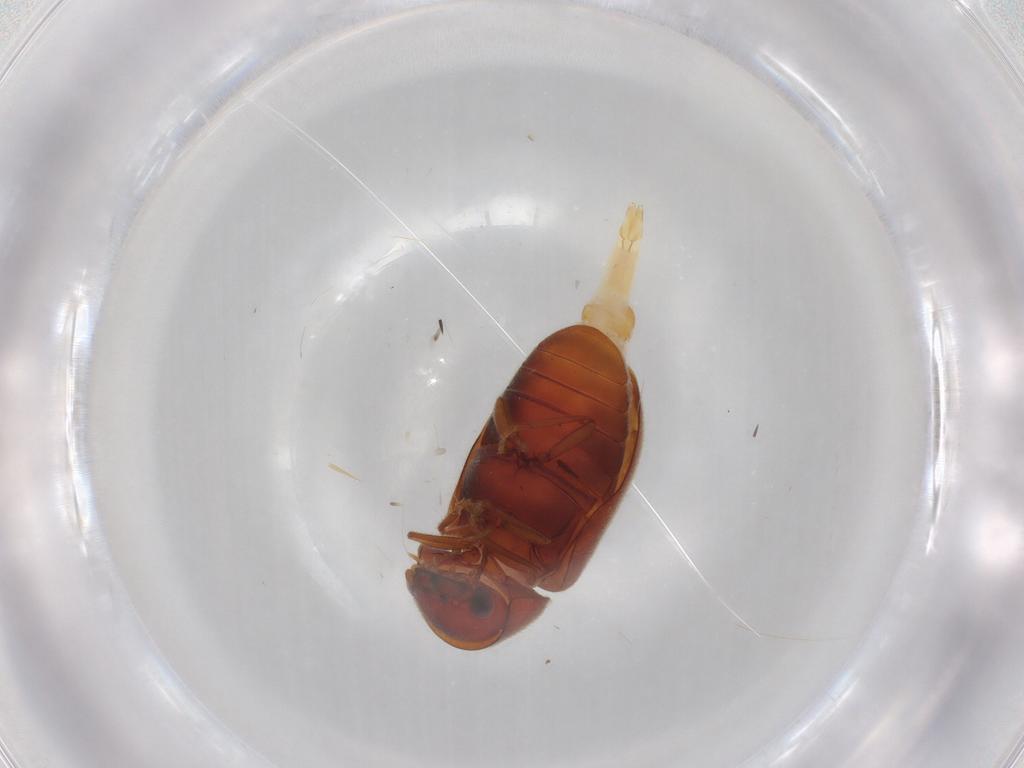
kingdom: Animalia
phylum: Arthropoda
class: Insecta
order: Coleoptera
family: Ptinidae
